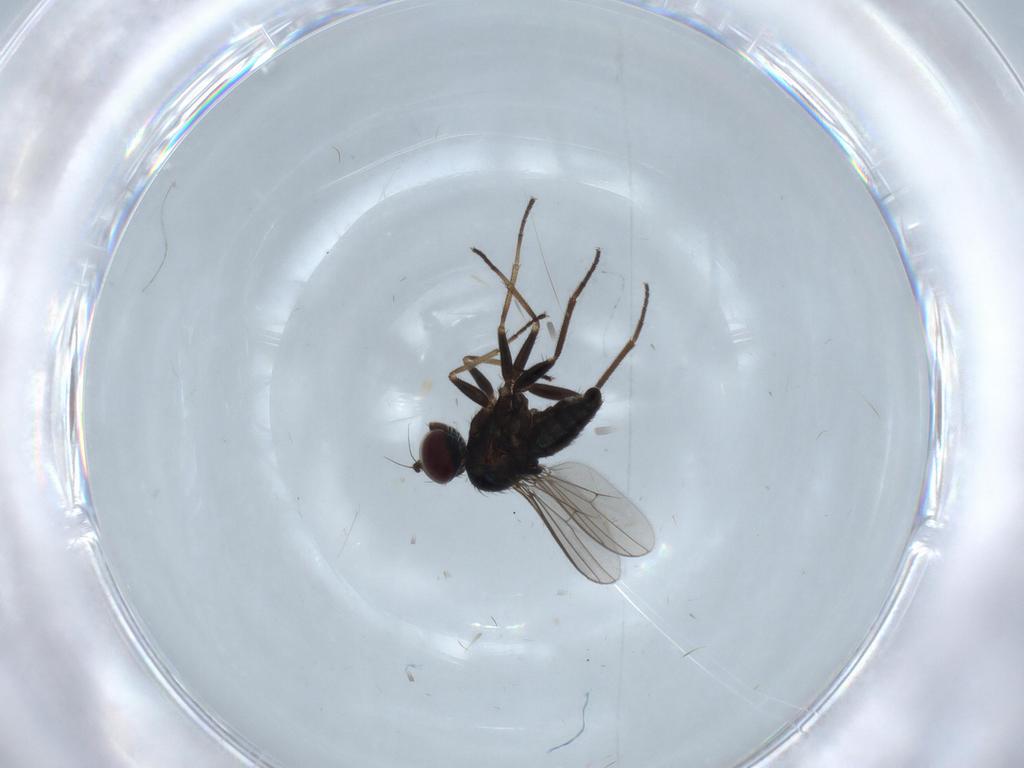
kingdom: Animalia
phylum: Arthropoda
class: Insecta
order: Diptera
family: Dolichopodidae
